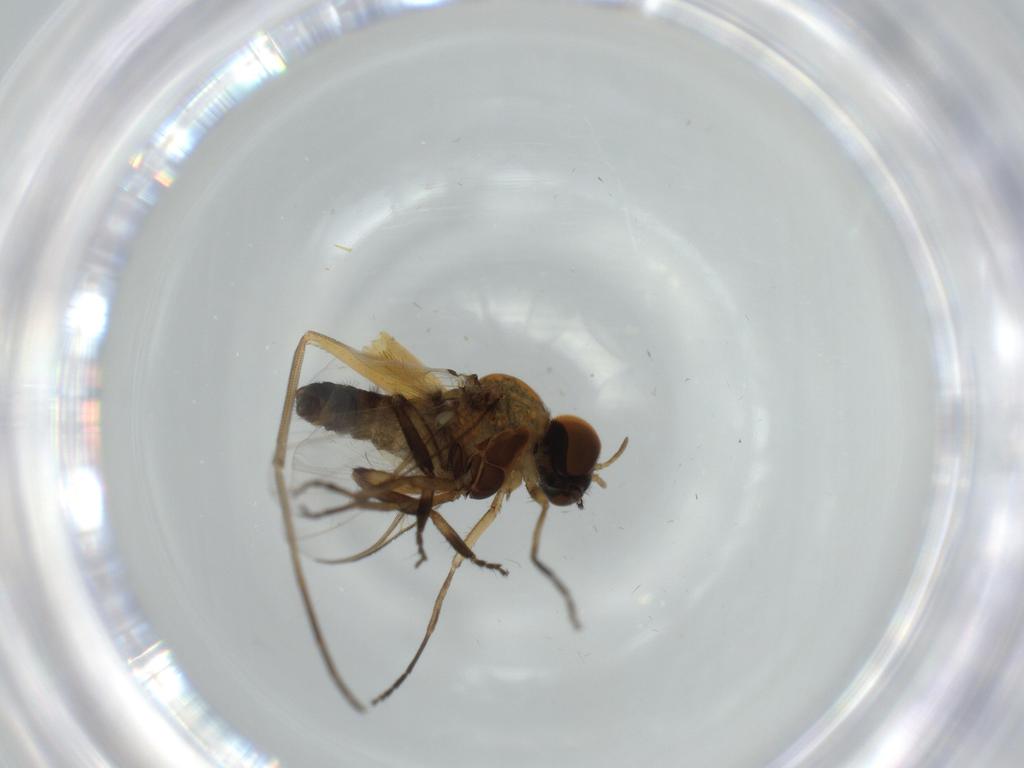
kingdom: Animalia
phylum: Arthropoda
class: Insecta
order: Diptera
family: Phoridae
